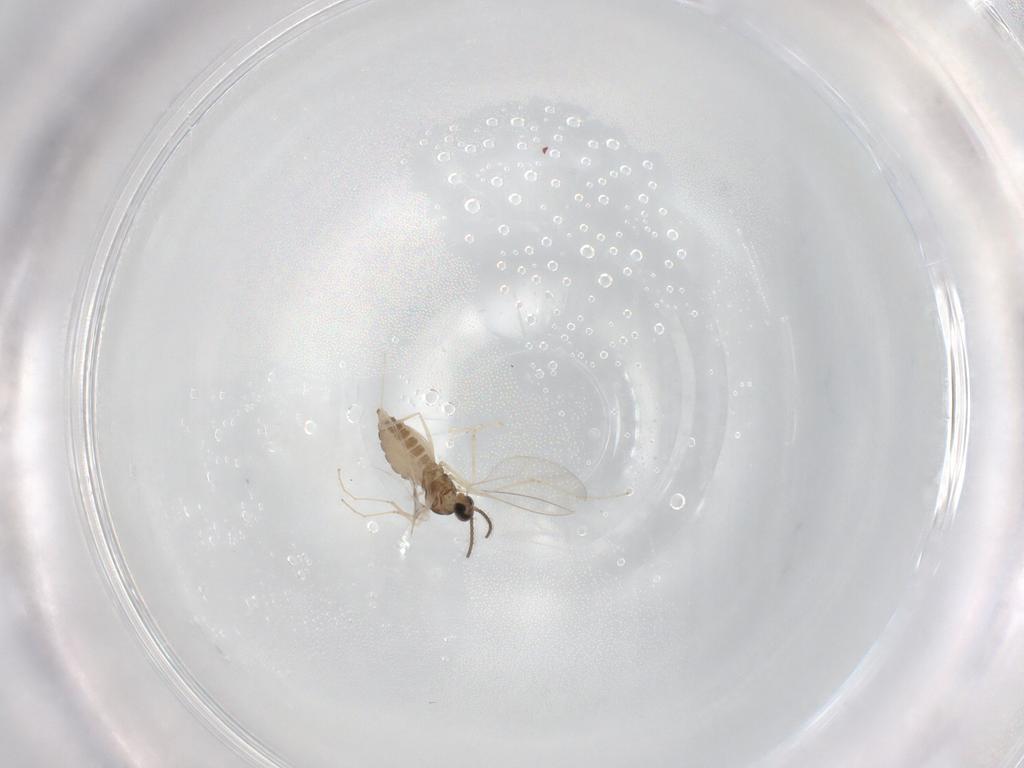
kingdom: Animalia
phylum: Arthropoda
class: Insecta
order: Diptera
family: Cecidomyiidae
